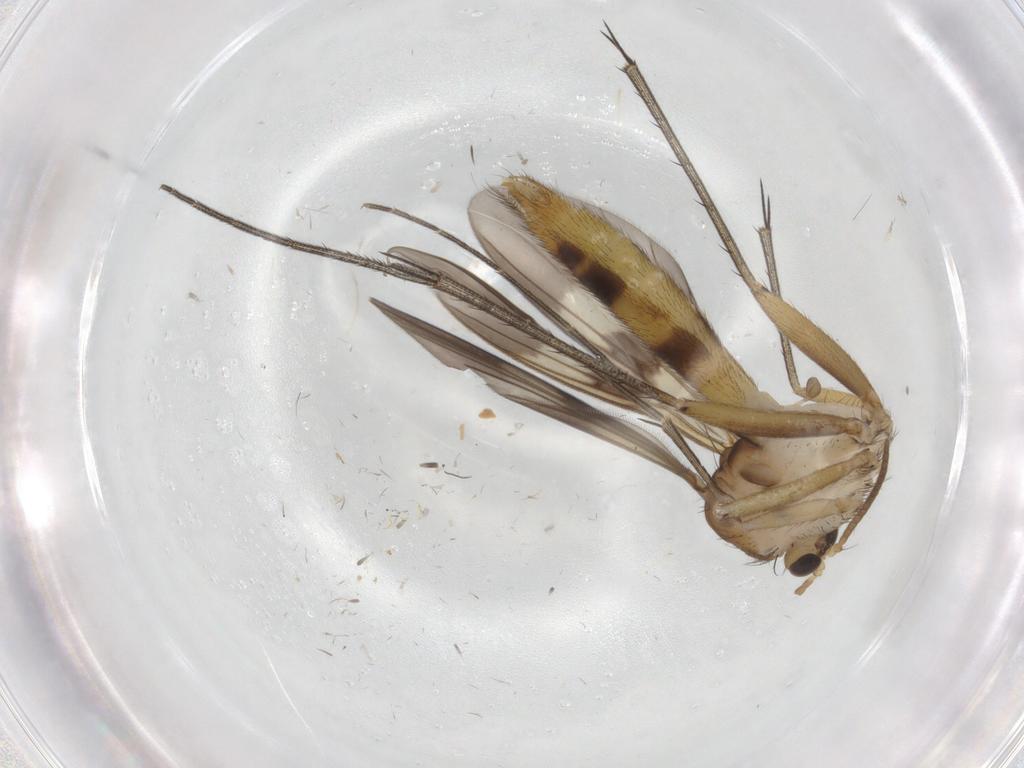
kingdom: Animalia
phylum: Arthropoda
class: Insecta
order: Diptera
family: Phoridae
